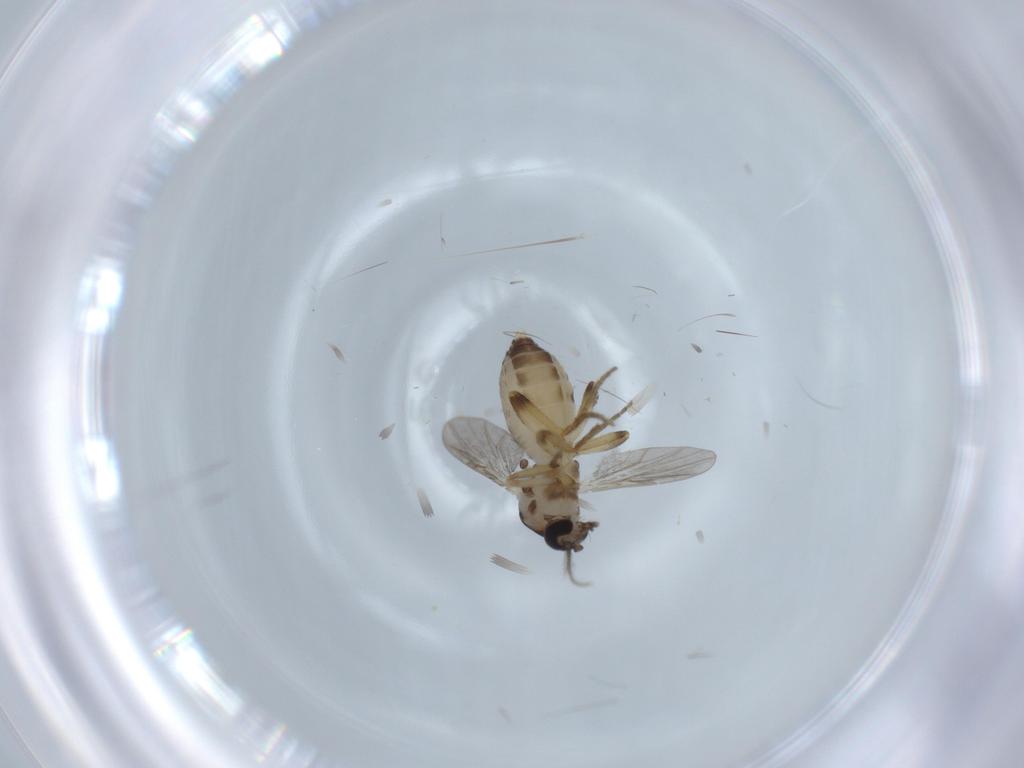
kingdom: Animalia
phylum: Arthropoda
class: Insecta
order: Diptera
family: Ceratopogonidae
